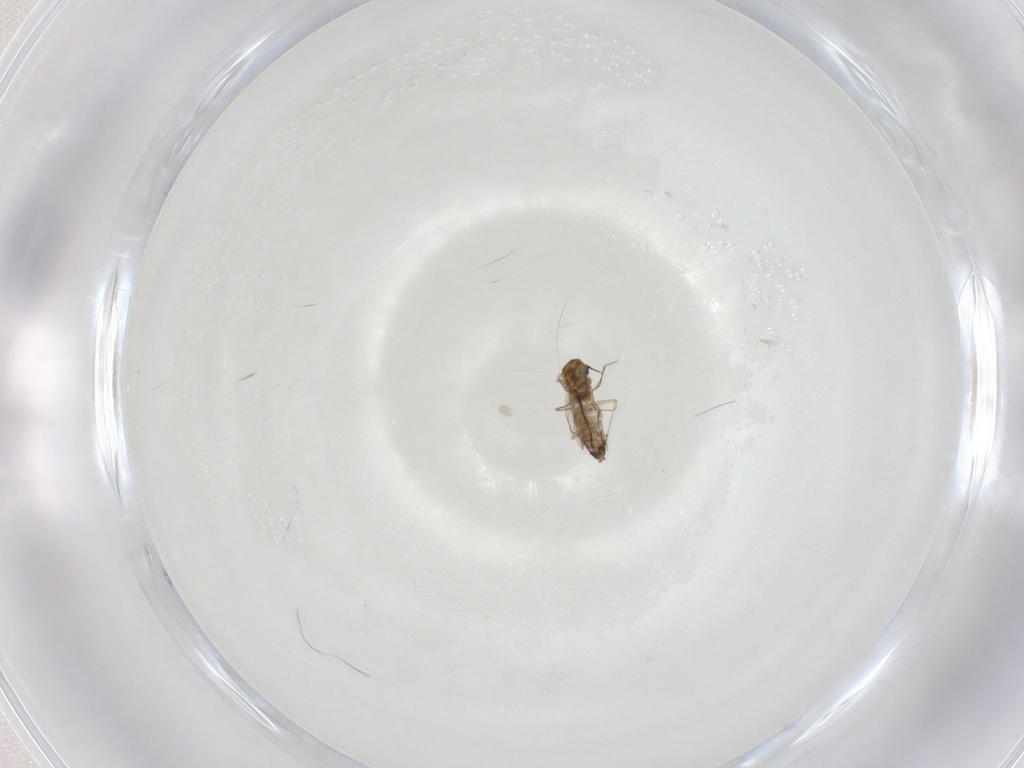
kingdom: Animalia
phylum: Arthropoda
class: Insecta
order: Diptera
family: Chironomidae
